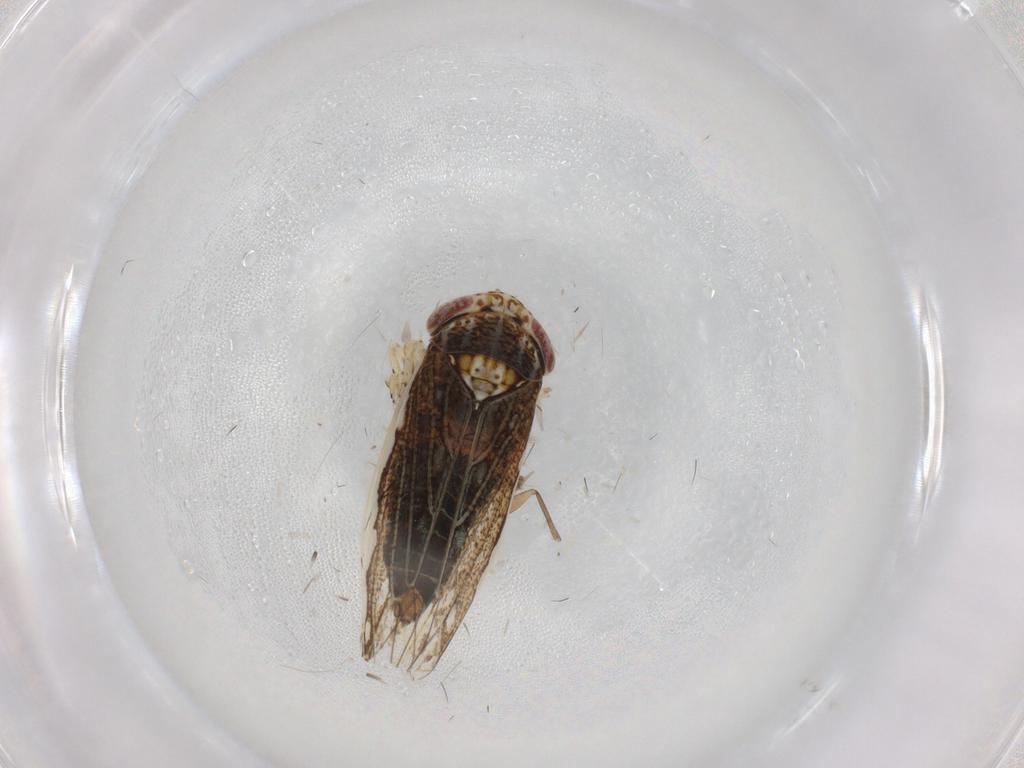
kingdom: Animalia
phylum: Arthropoda
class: Insecta
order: Hemiptera
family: Cicadellidae
